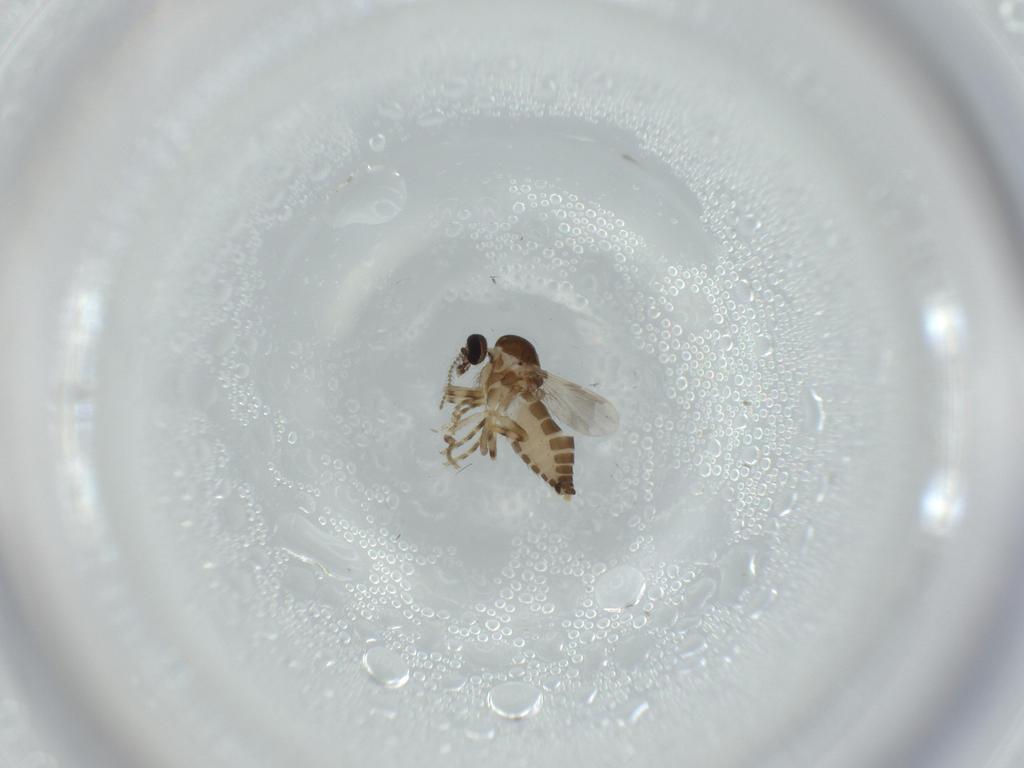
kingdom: Animalia
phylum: Arthropoda
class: Insecta
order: Diptera
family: Ceratopogonidae
